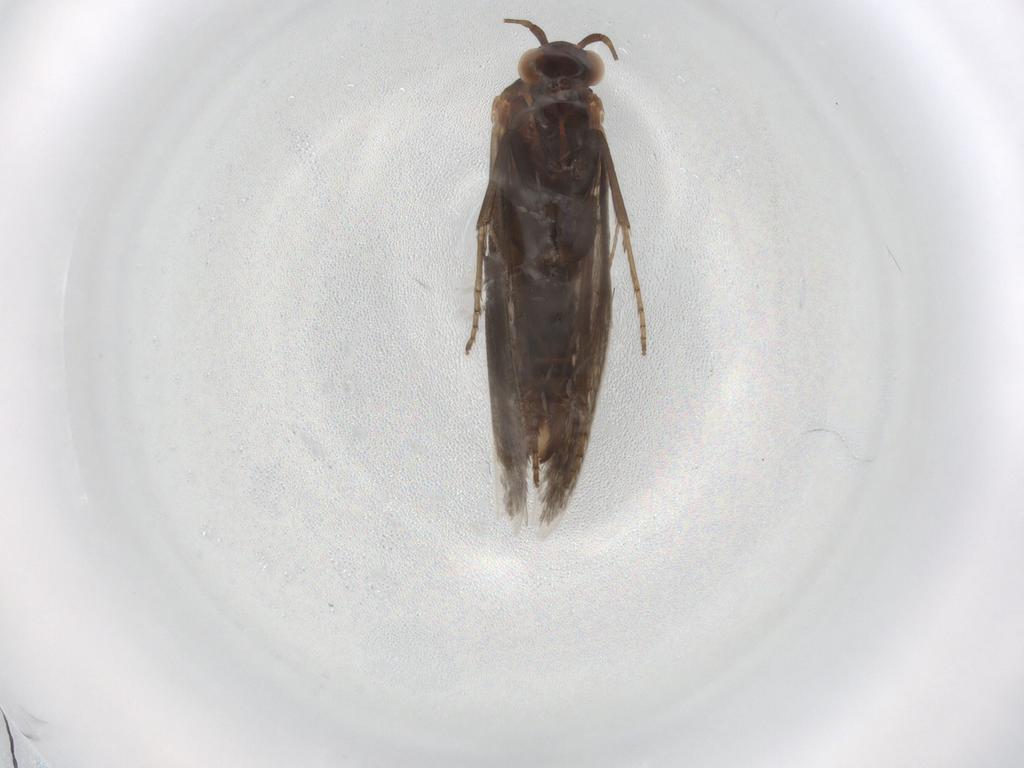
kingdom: Animalia
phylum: Arthropoda
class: Insecta
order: Lepidoptera
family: Incurvariidae
